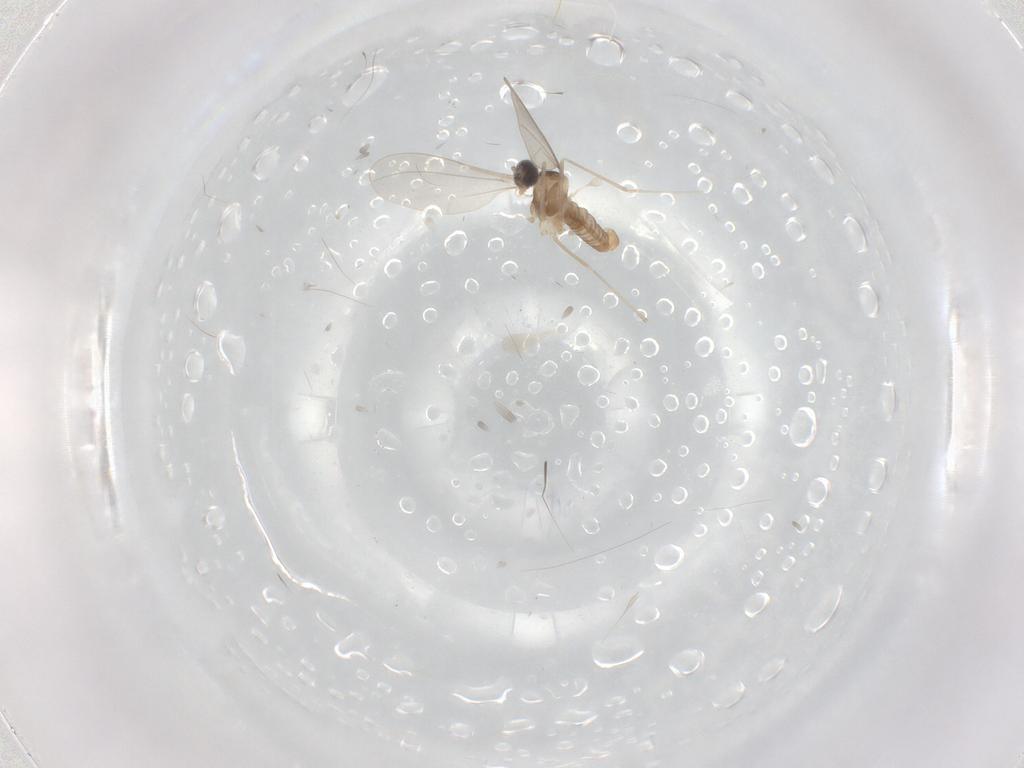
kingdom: Animalia
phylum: Arthropoda
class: Insecta
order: Diptera
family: Cecidomyiidae
